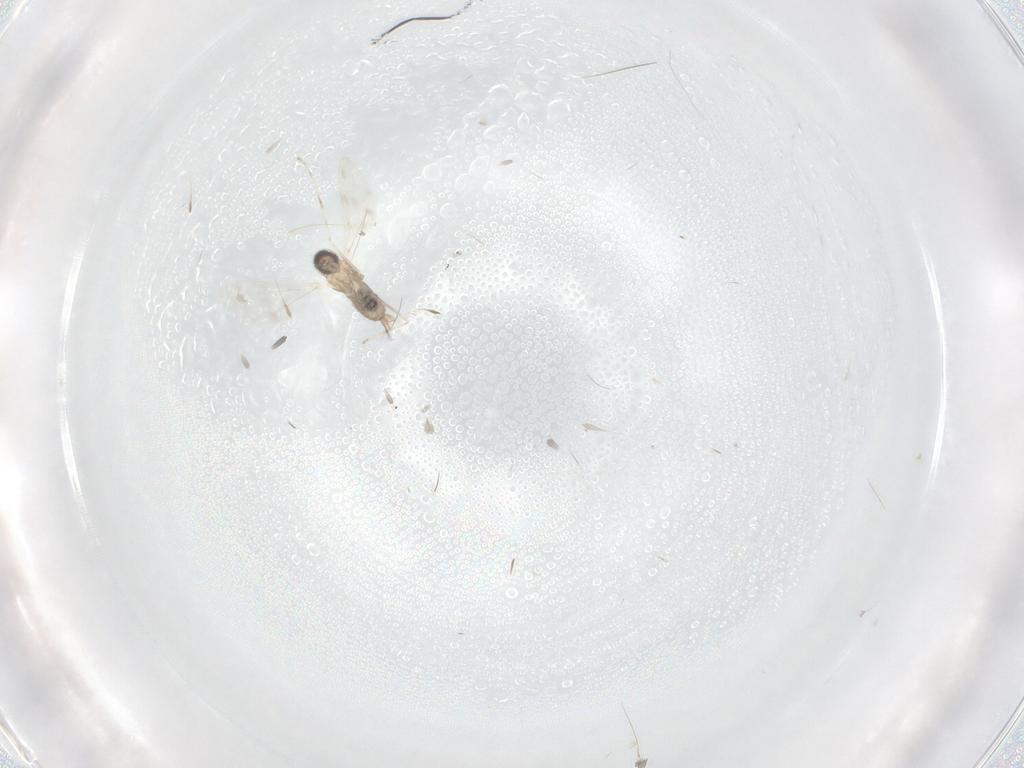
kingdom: Animalia
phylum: Arthropoda
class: Insecta
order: Diptera
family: Cecidomyiidae
